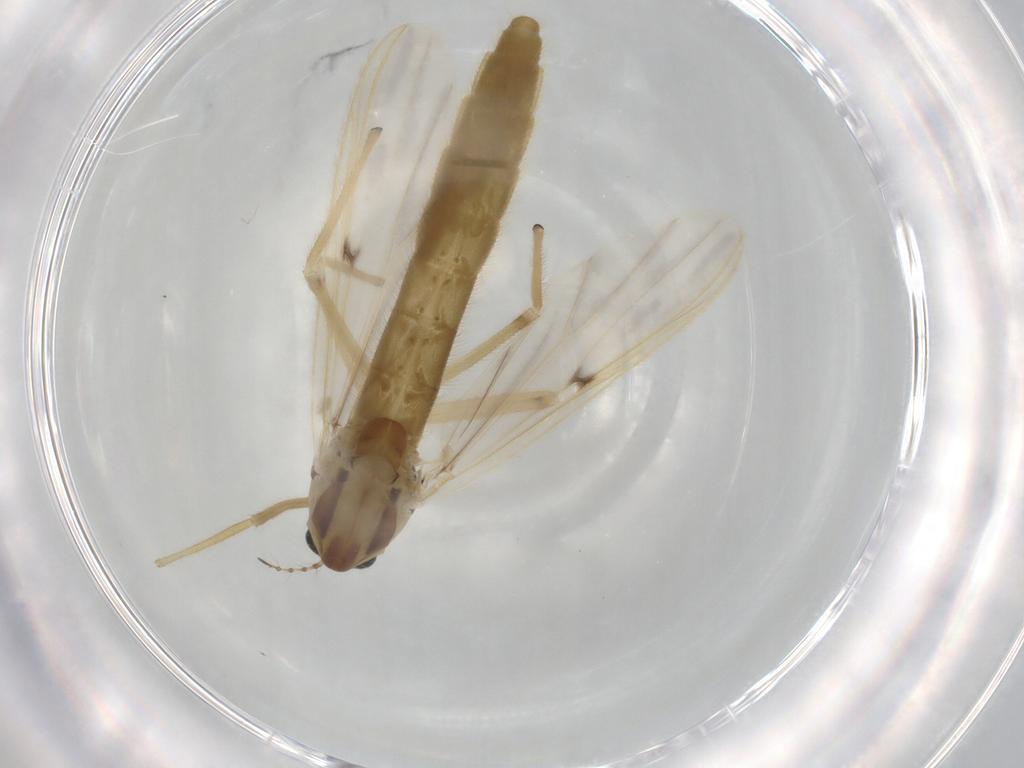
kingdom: Animalia
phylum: Arthropoda
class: Insecta
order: Diptera
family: Chironomidae
